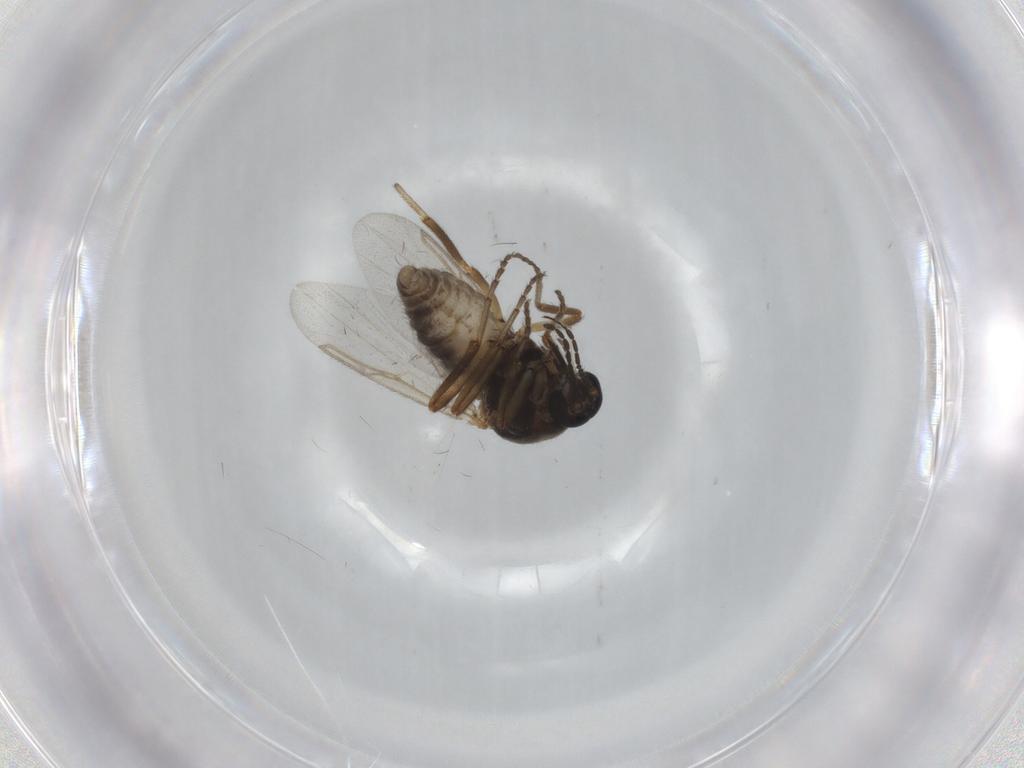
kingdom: Animalia
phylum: Arthropoda
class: Insecta
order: Diptera
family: Ceratopogonidae
